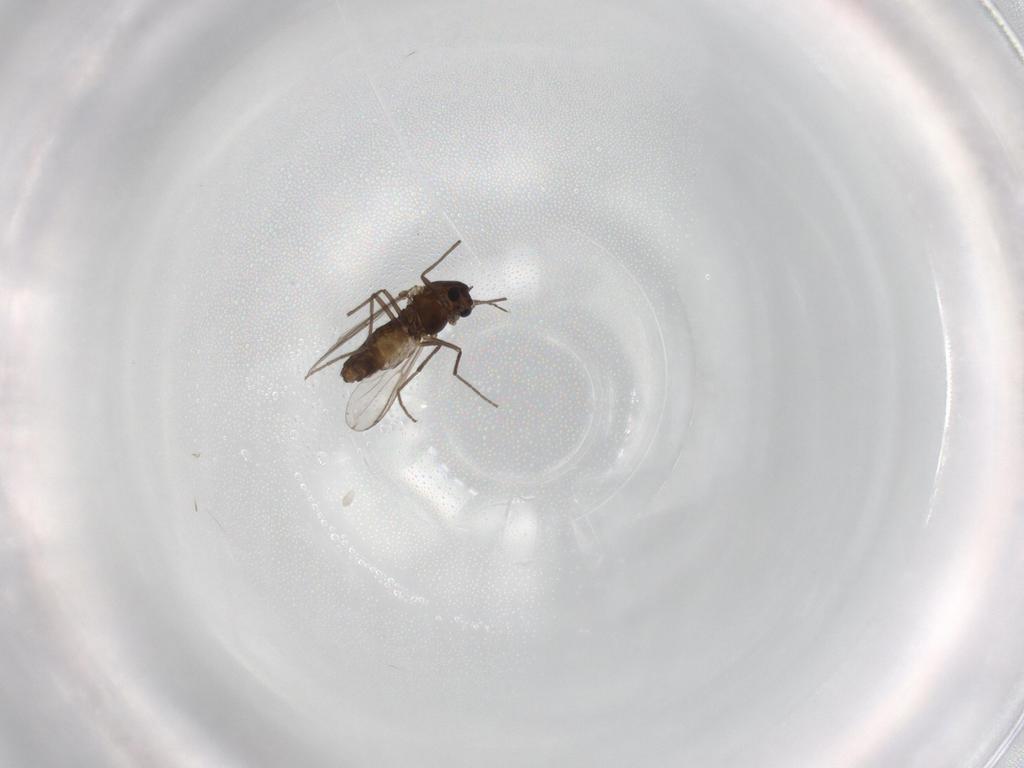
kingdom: Animalia
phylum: Arthropoda
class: Insecta
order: Diptera
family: Chironomidae
